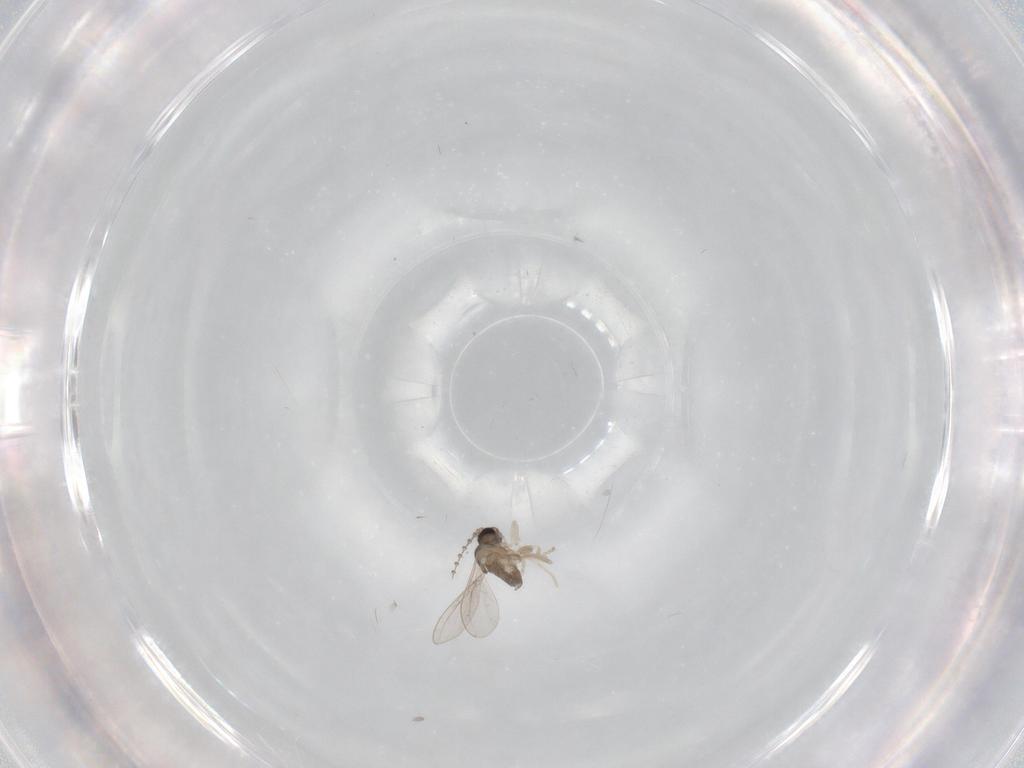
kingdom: Animalia
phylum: Arthropoda
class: Insecta
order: Diptera
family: Cecidomyiidae
